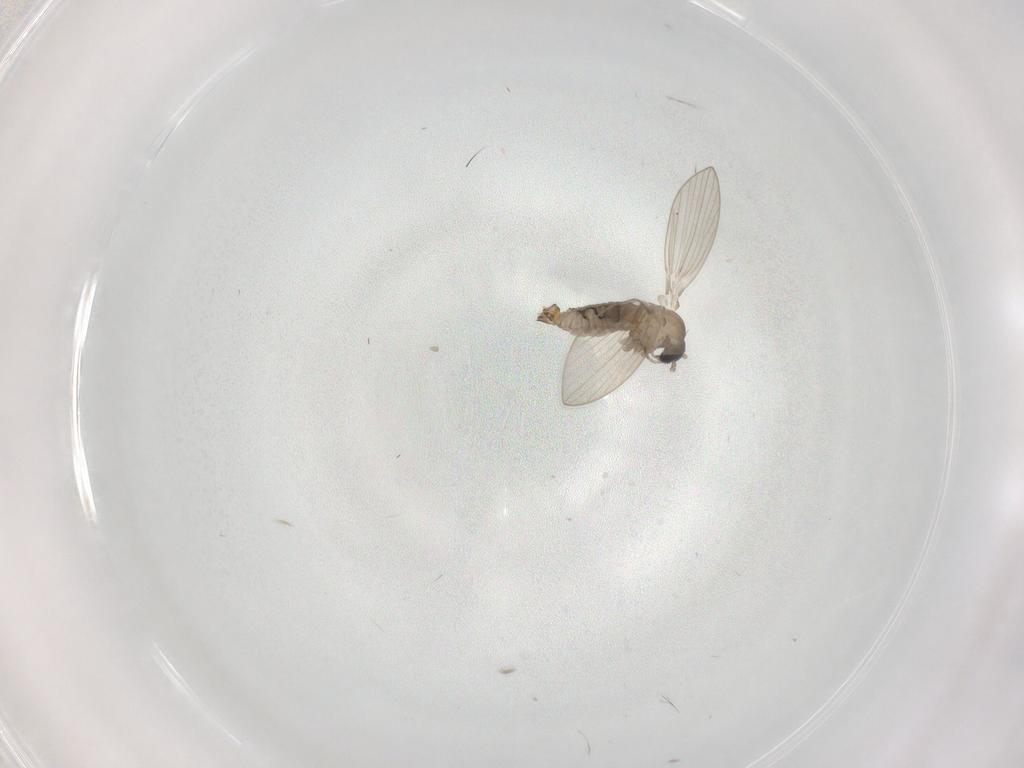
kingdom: Animalia
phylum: Arthropoda
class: Insecta
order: Diptera
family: Psychodidae
